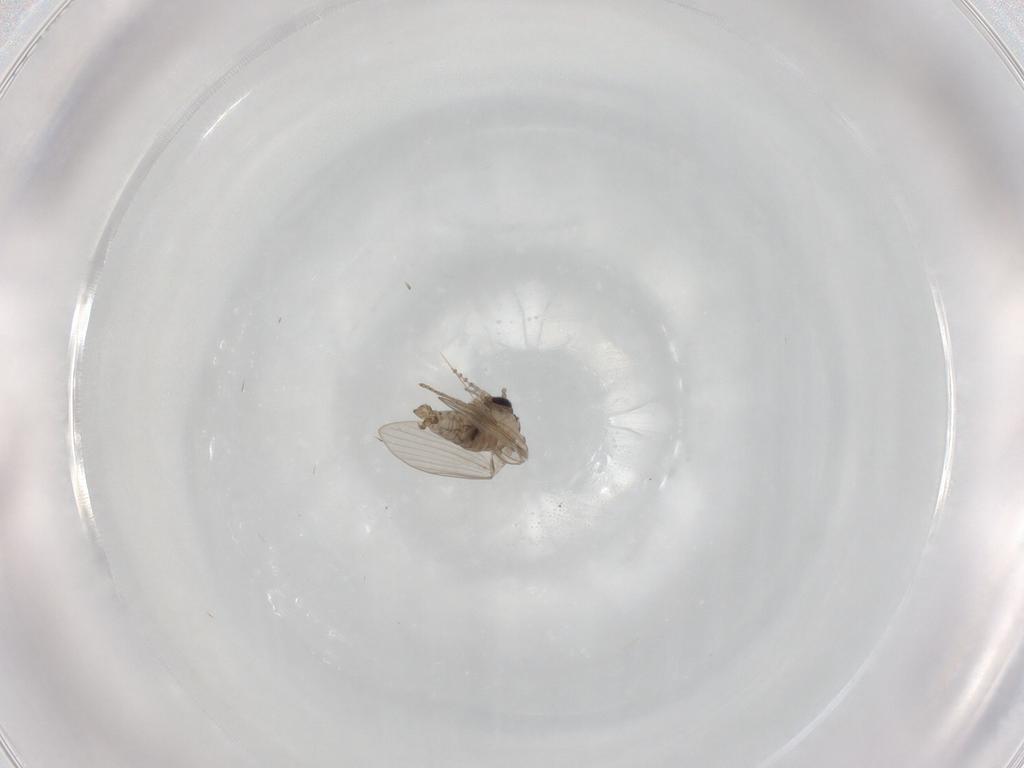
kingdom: Animalia
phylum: Arthropoda
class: Insecta
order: Diptera
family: Psychodidae
